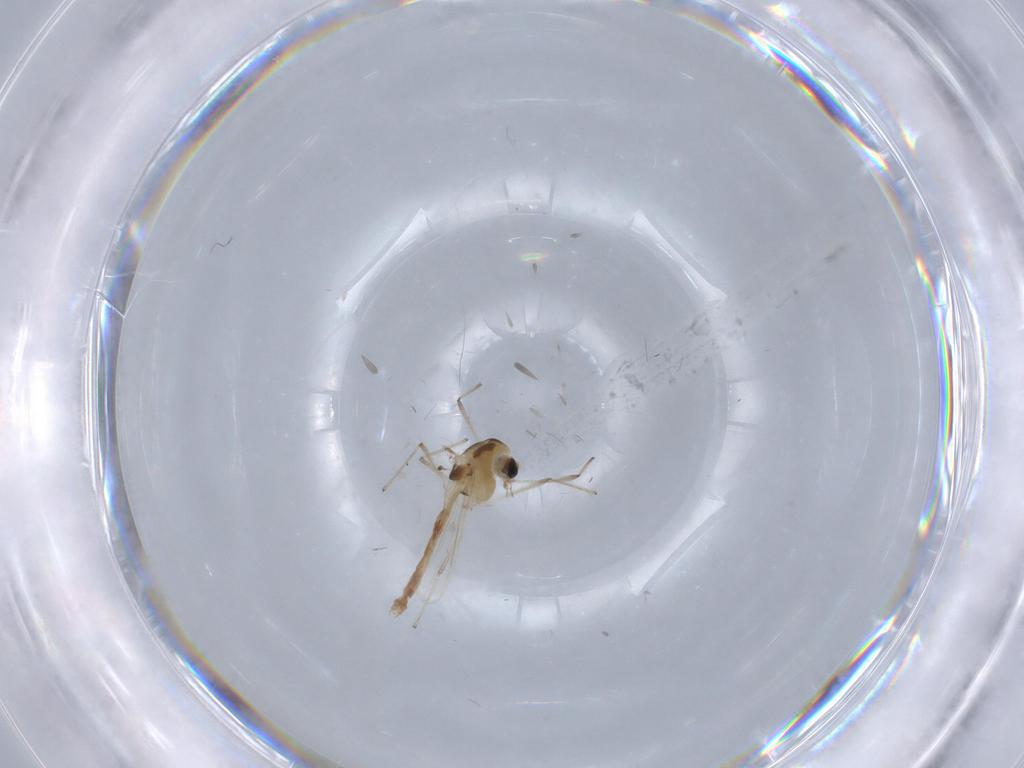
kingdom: Animalia
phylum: Arthropoda
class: Insecta
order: Diptera
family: Chironomidae
